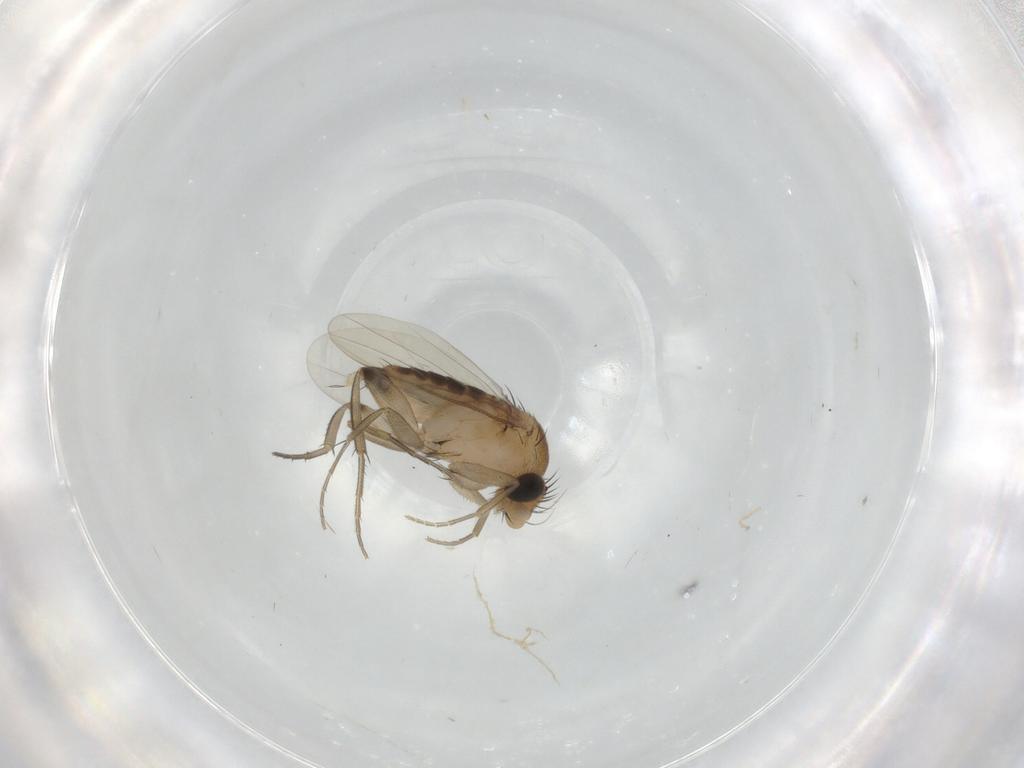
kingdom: Animalia
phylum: Arthropoda
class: Insecta
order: Diptera
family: Phoridae
